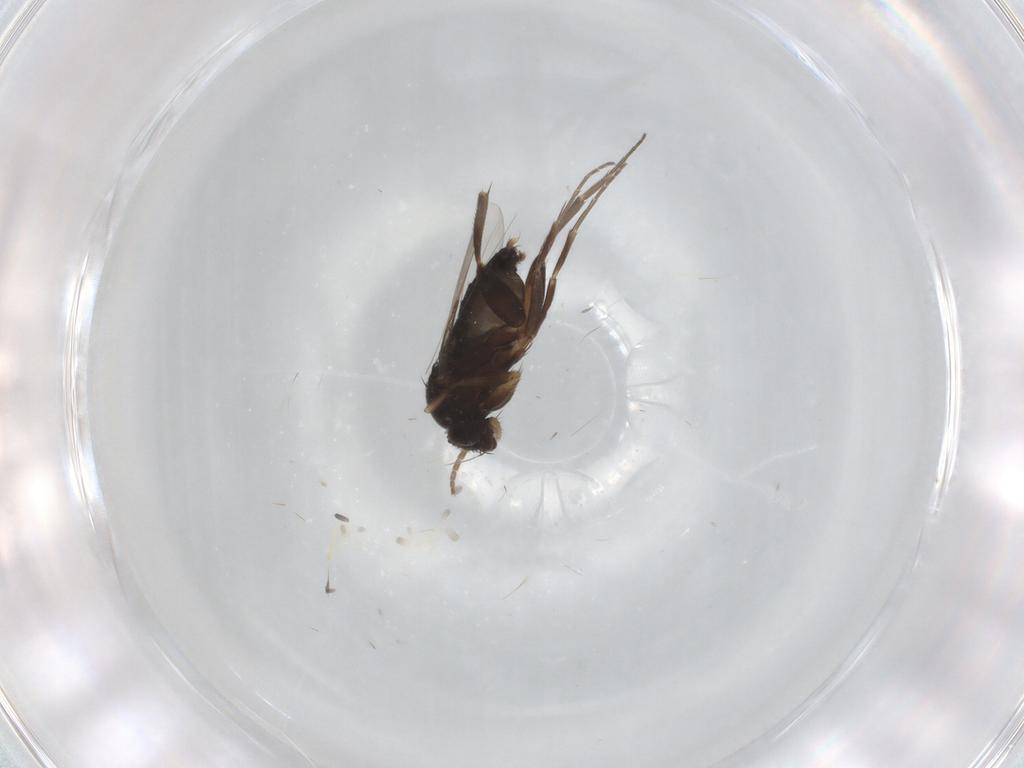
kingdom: Animalia
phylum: Arthropoda
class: Insecta
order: Diptera
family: Phoridae
